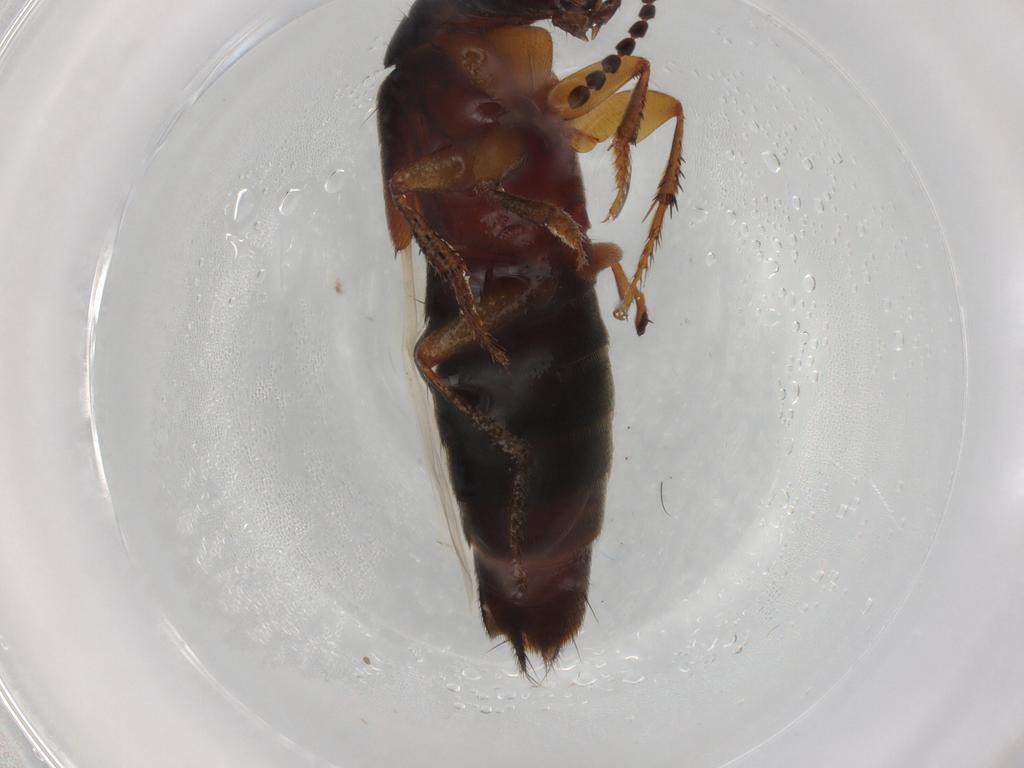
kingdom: Animalia
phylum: Arthropoda
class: Insecta
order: Coleoptera
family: Staphylinidae
